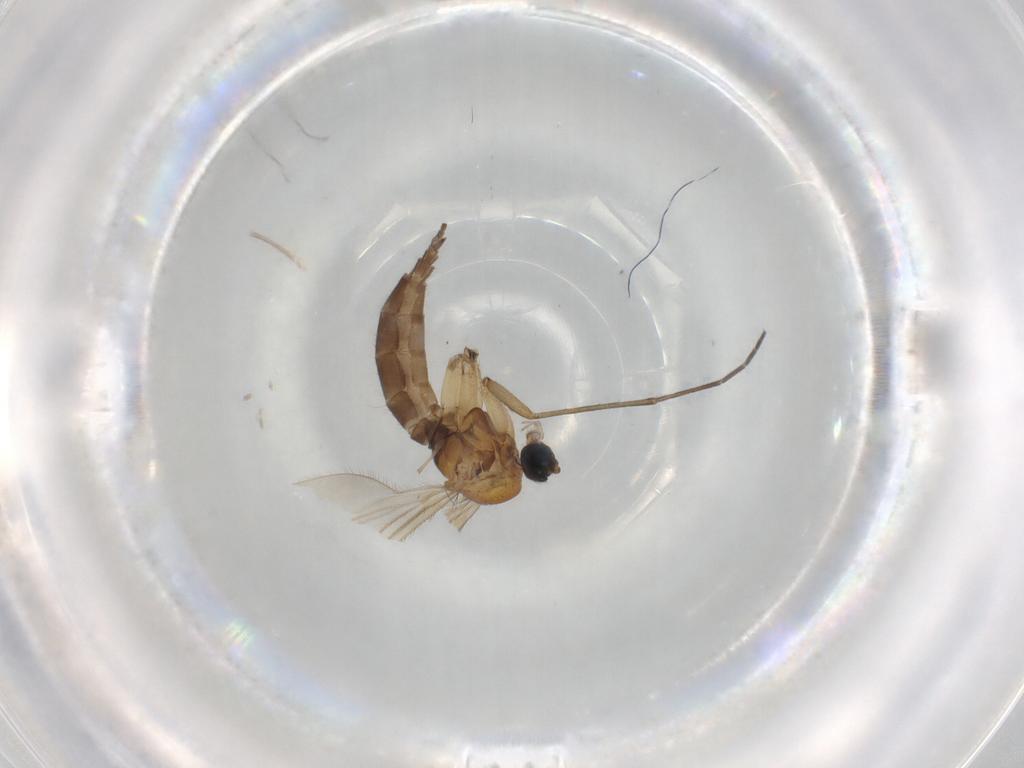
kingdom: Animalia
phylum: Arthropoda
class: Insecta
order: Diptera
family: Sciaridae
